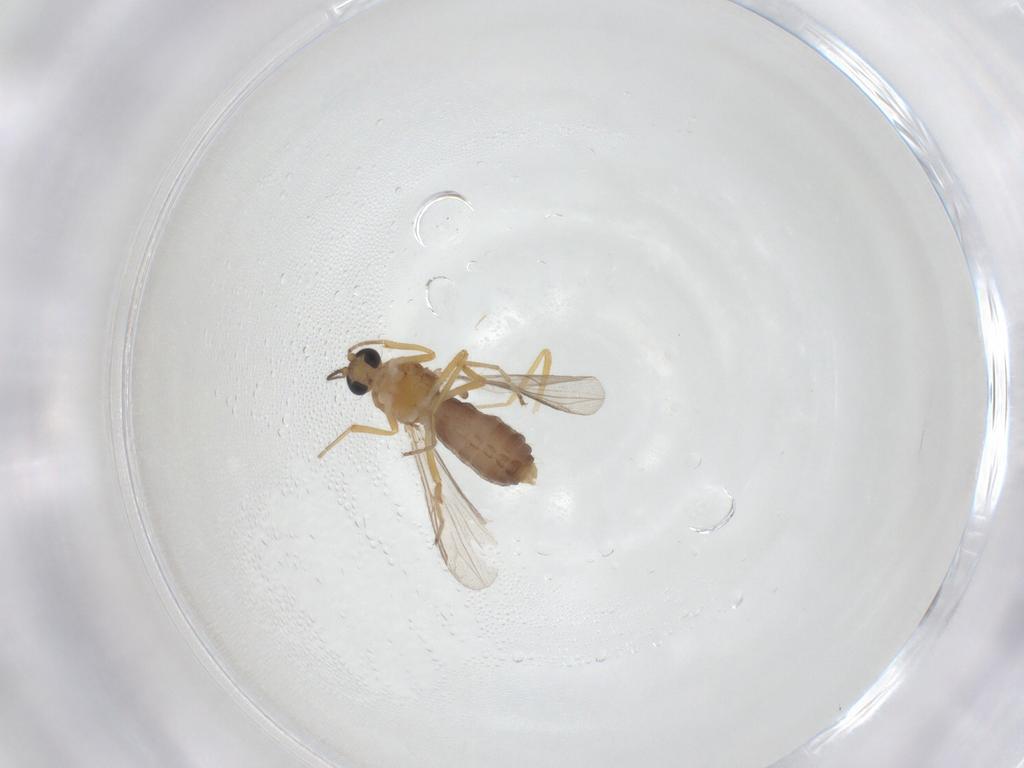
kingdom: Animalia
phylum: Arthropoda
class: Insecta
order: Diptera
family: Ceratopogonidae
